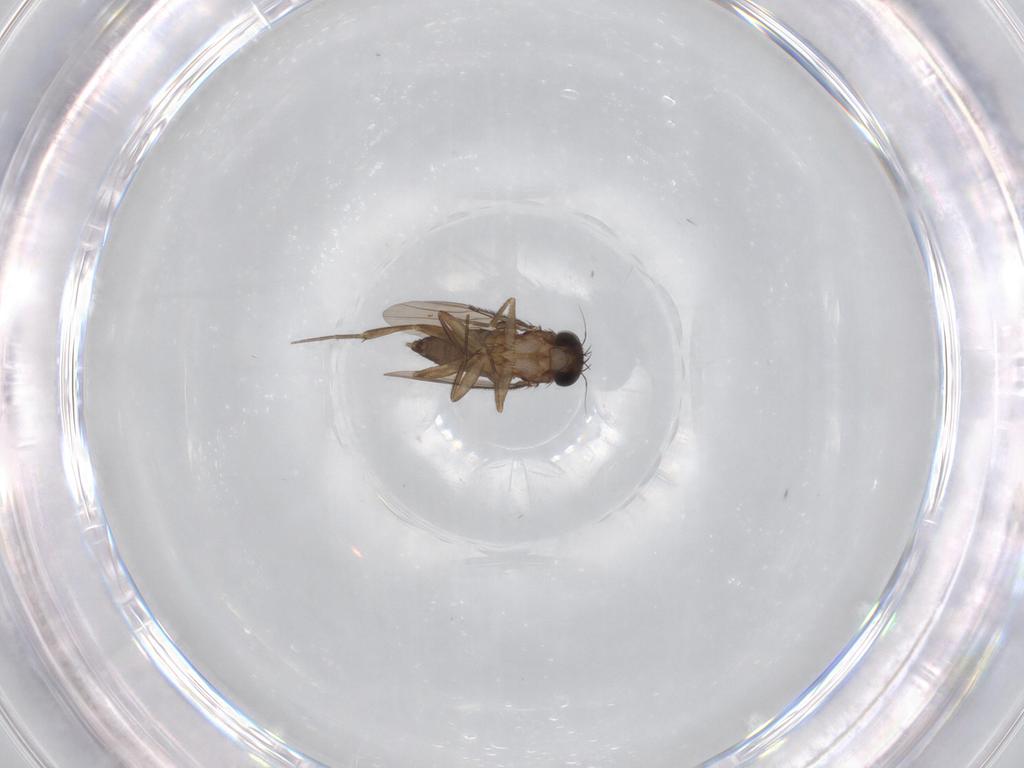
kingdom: Animalia
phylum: Arthropoda
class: Insecta
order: Diptera
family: Phoridae
